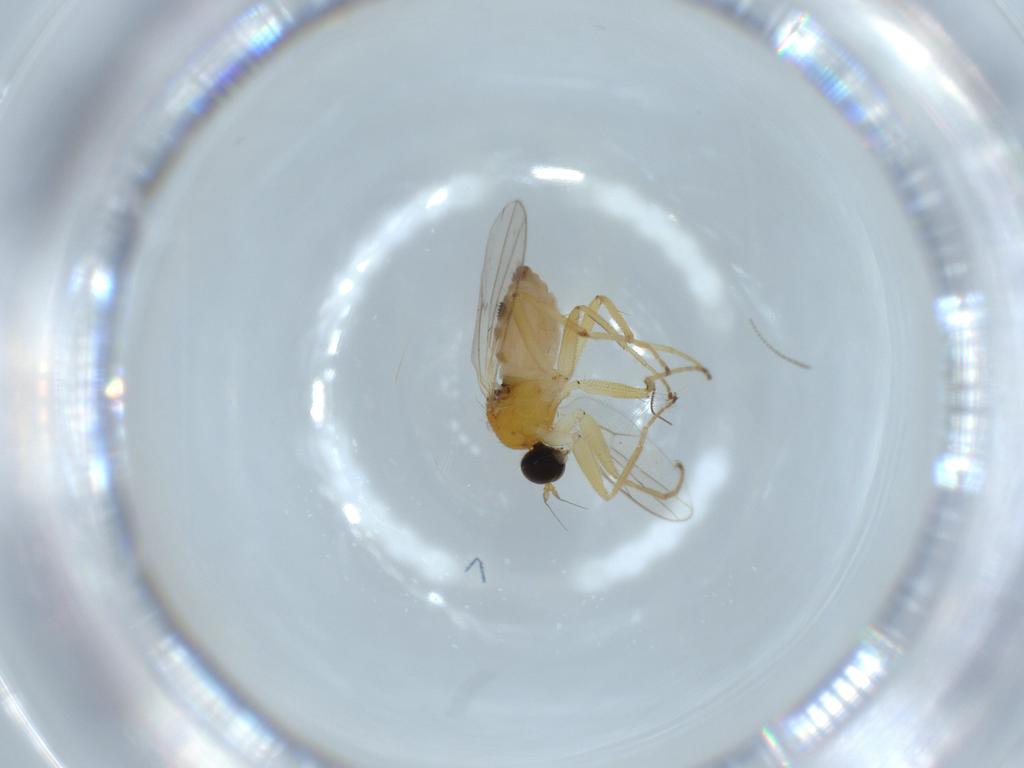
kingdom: Animalia
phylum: Arthropoda
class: Insecta
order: Diptera
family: Hybotidae
